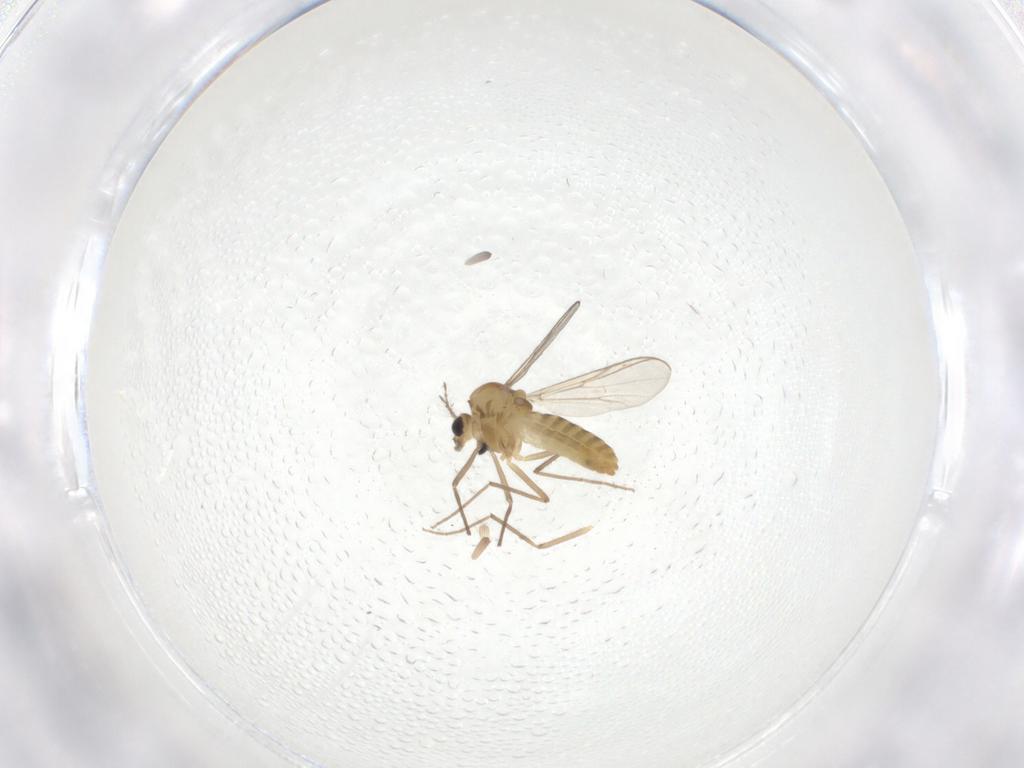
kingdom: Animalia
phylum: Arthropoda
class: Insecta
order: Diptera
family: Chironomidae
